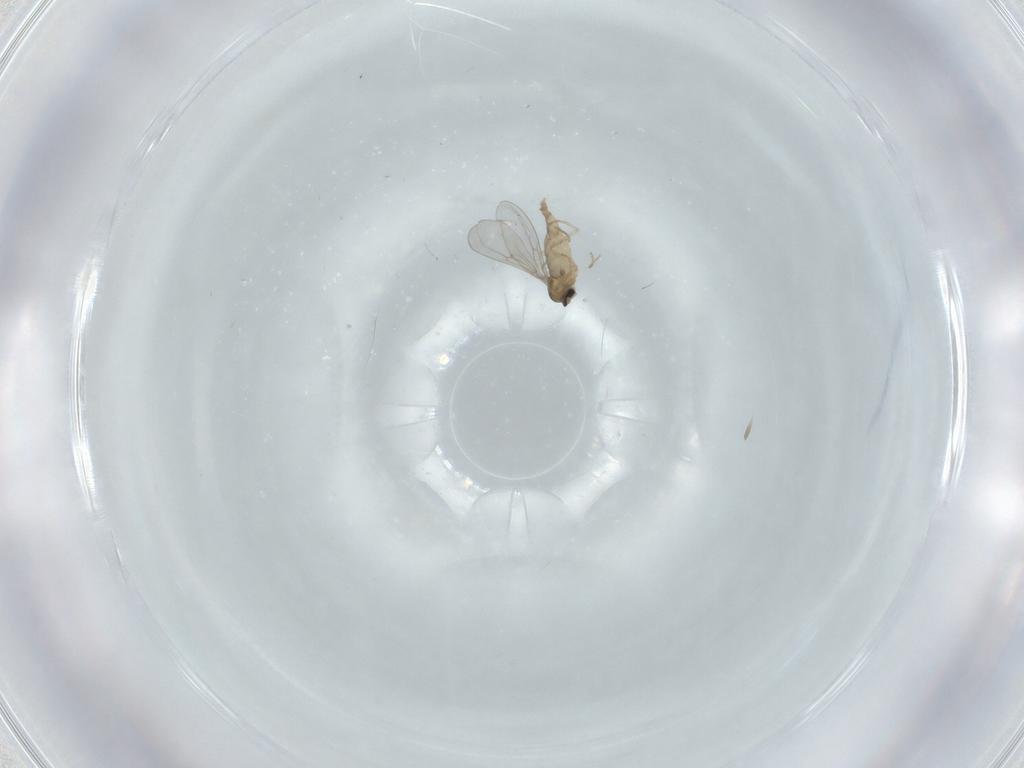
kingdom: Animalia
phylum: Arthropoda
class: Insecta
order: Diptera
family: Cecidomyiidae
